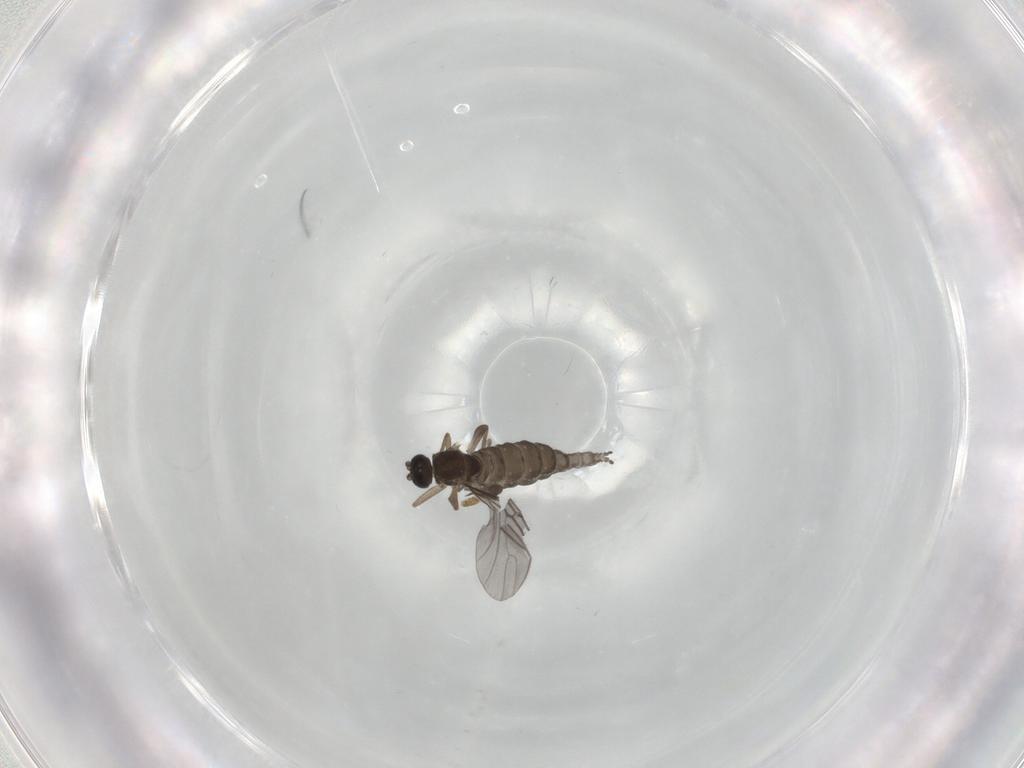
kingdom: Animalia
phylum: Arthropoda
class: Insecta
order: Diptera
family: Cecidomyiidae
